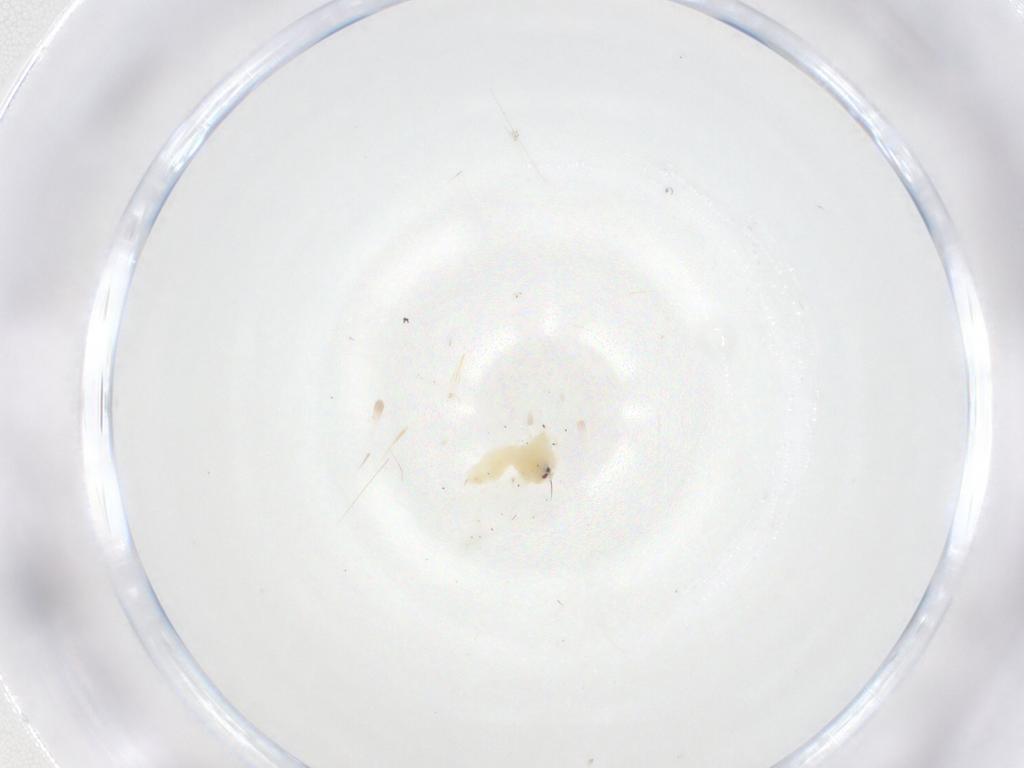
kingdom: Animalia
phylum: Arthropoda
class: Insecta
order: Hemiptera
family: Aleyrodidae
